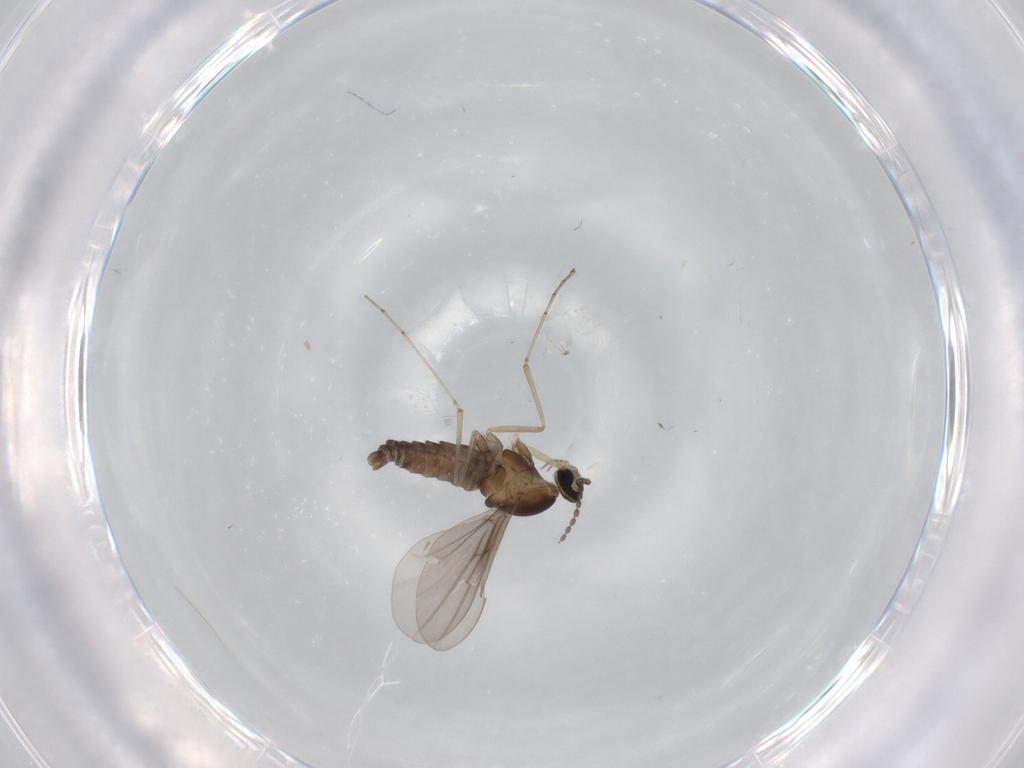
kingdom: Animalia
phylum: Arthropoda
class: Insecta
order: Diptera
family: Cecidomyiidae
